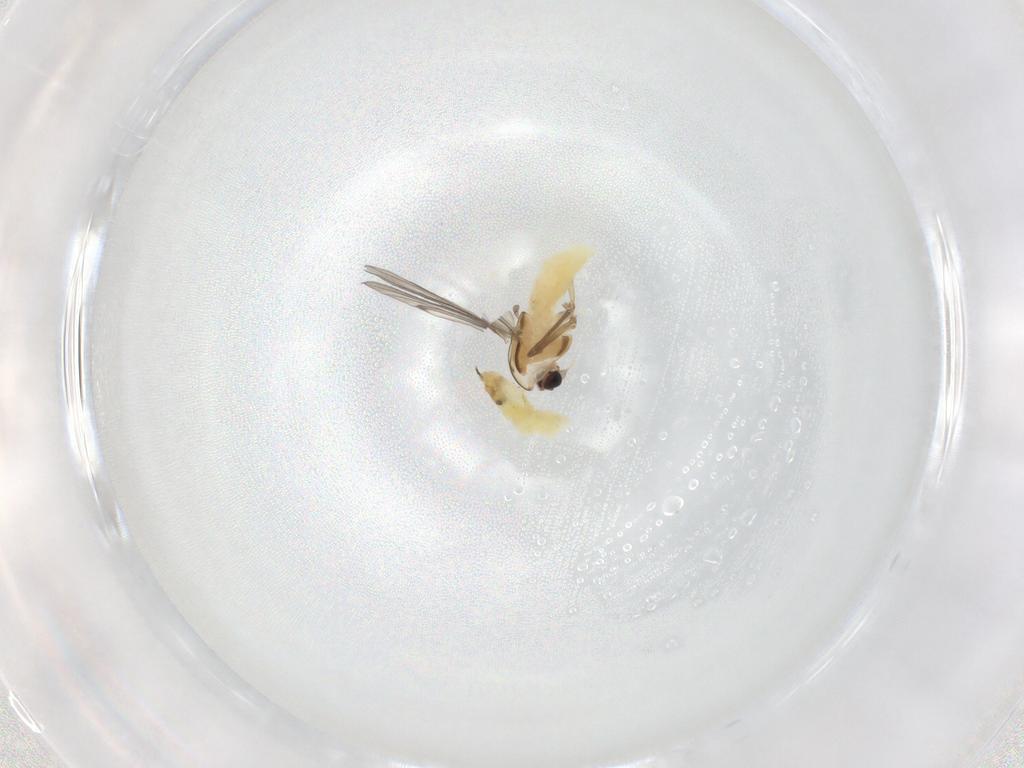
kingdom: Animalia
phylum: Arthropoda
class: Insecta
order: Diptera
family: Chironomidae
